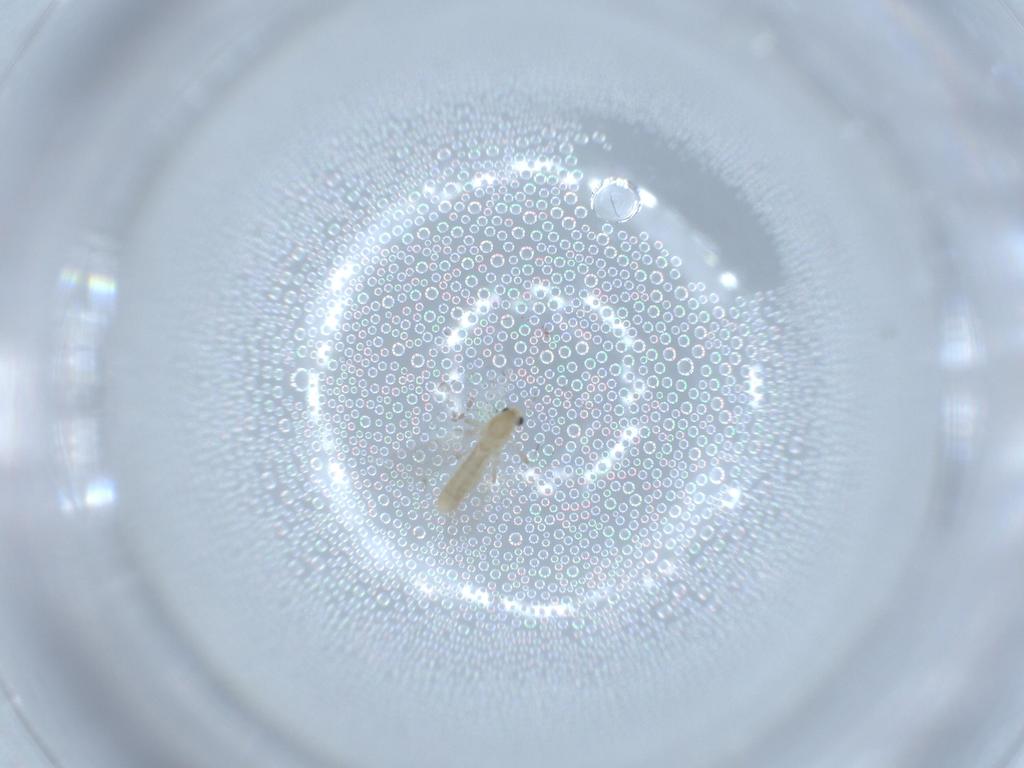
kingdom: Animalia
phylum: Arthropoda
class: Insecta
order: Diptera
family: Chironomidae
